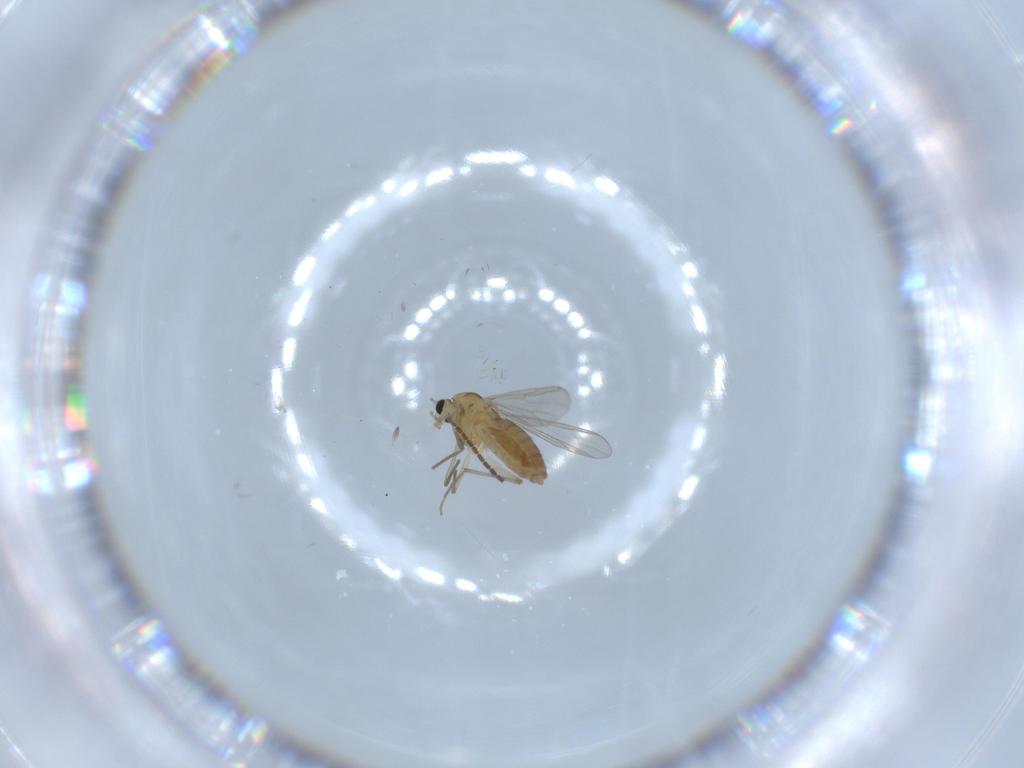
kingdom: Animalia
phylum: Arthropoda
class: Insecta
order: Diptera
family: Chironomidae
